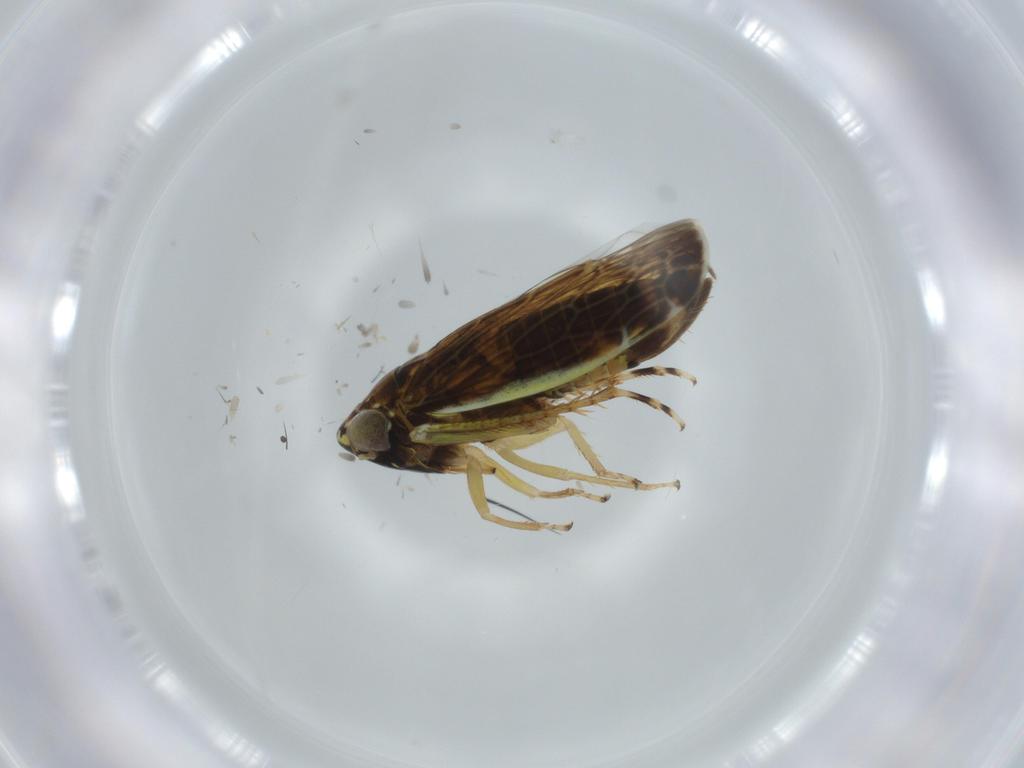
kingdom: Animalia
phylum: Arthropoda
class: Insecta
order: Hemiptera
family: Cicadellidae
